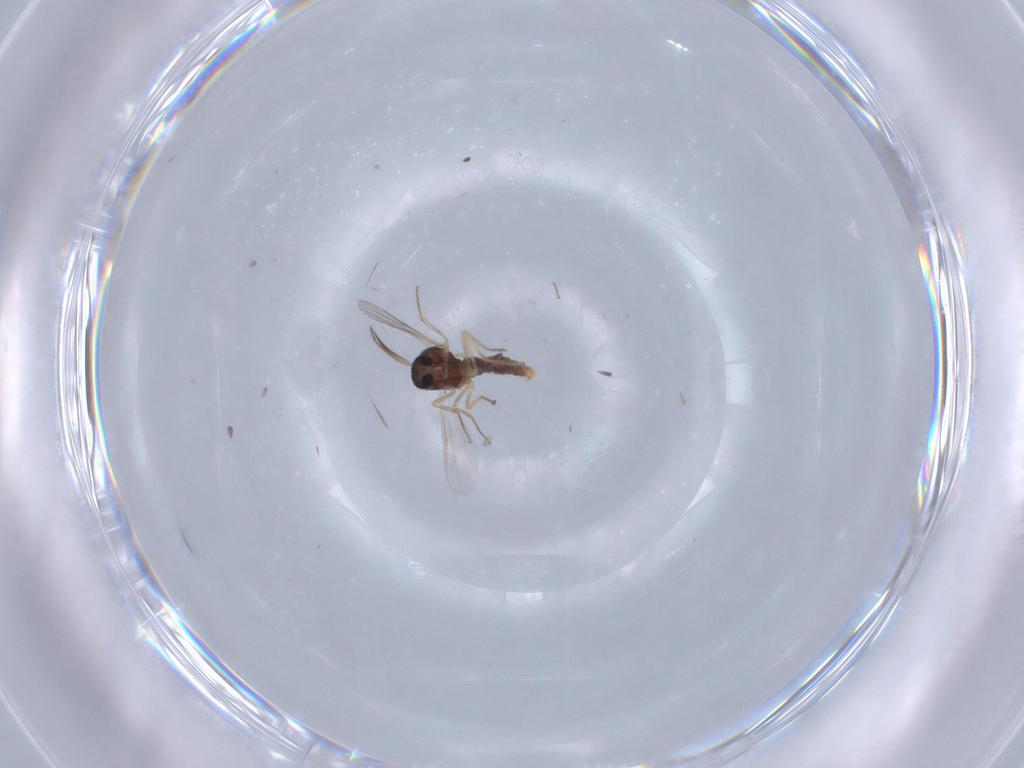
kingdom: Animalia
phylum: Arthropoda
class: Insecta
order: Diptera
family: Ceratopogonidae
